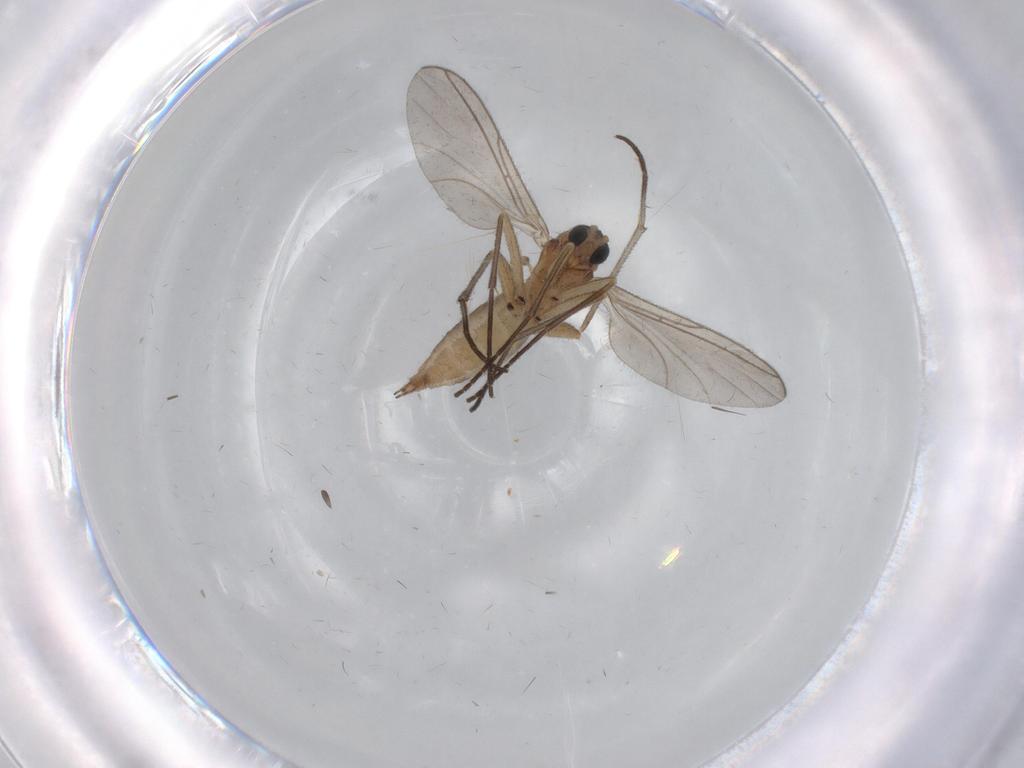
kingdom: Animalia
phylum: Arthropoda
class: Insecta
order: Diptera
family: Sciaridae
